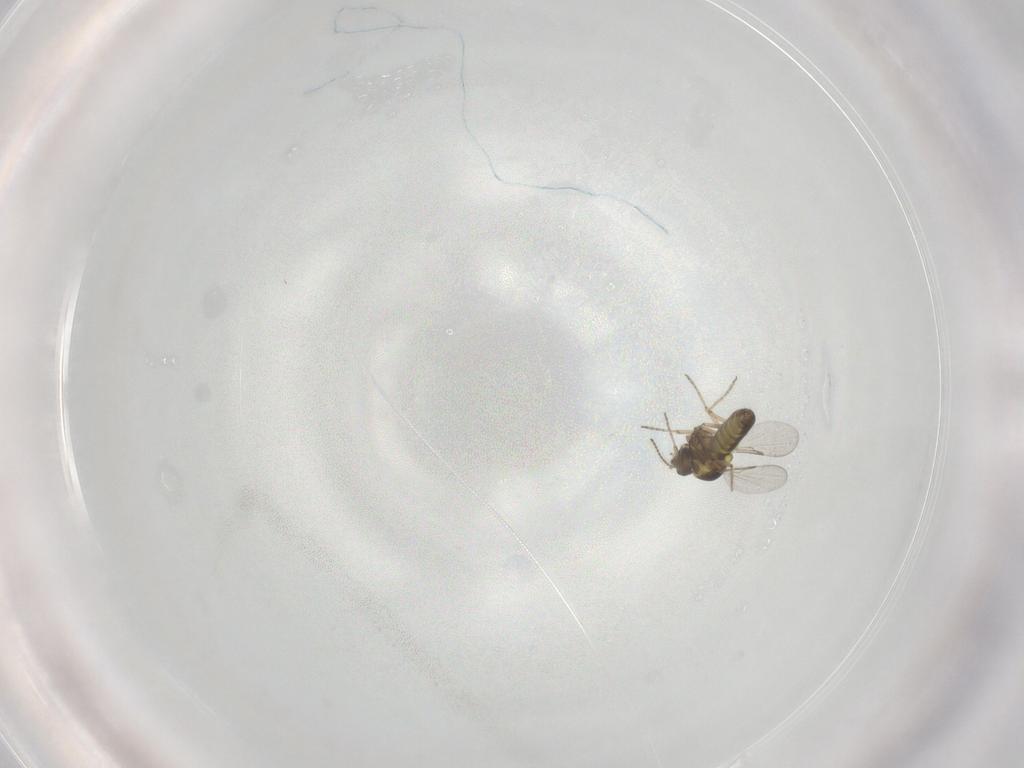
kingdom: Animalia
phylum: Arthropoda
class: Insecta
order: Diptera
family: Ceratopogonidae
